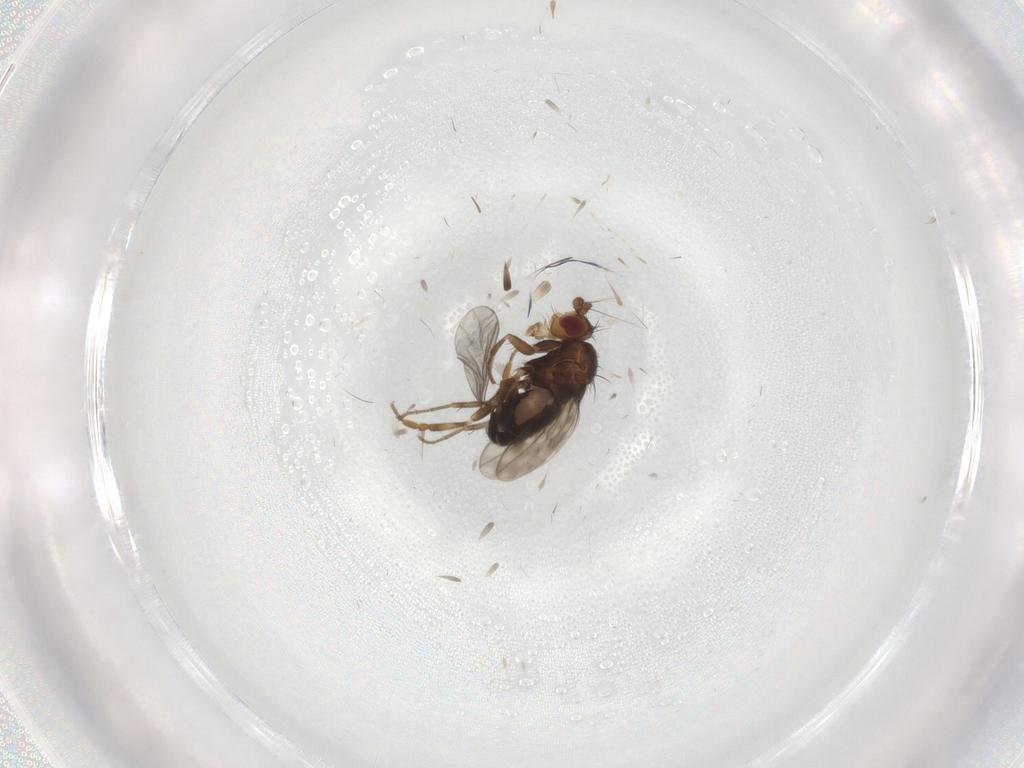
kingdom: Animalia
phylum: Arthropoda
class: Insecta
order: Diptera
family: Sphaeroceridae
